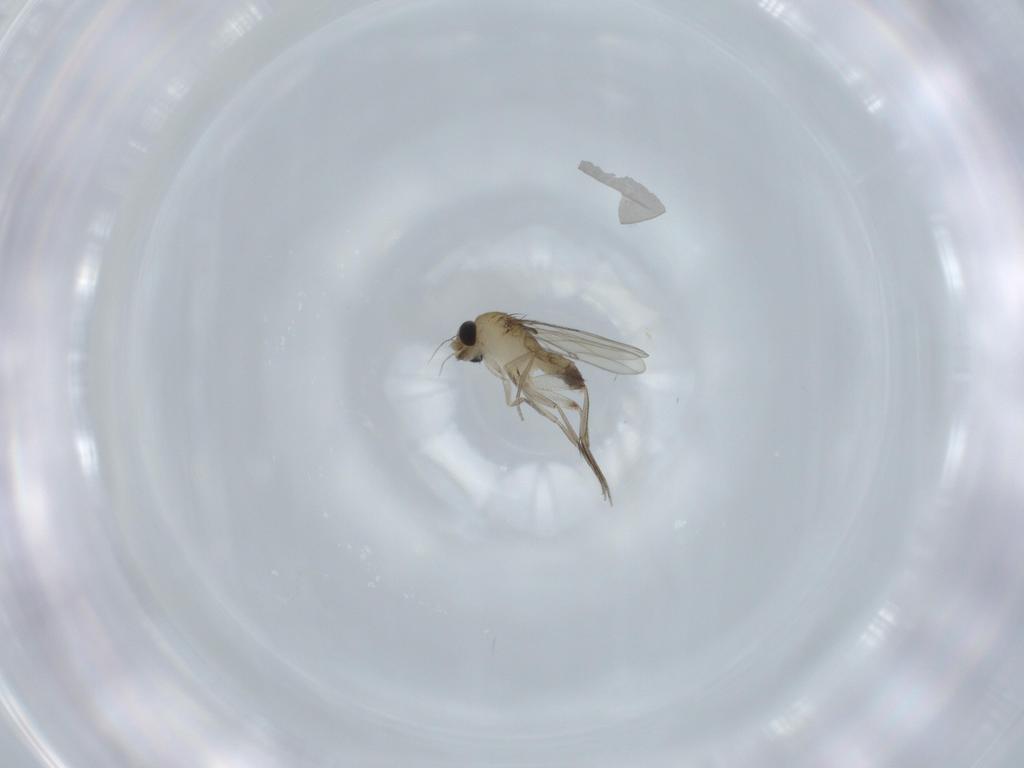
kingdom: Animalia
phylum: Arthropoda
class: Insecta
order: Diptera
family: Phoridae
